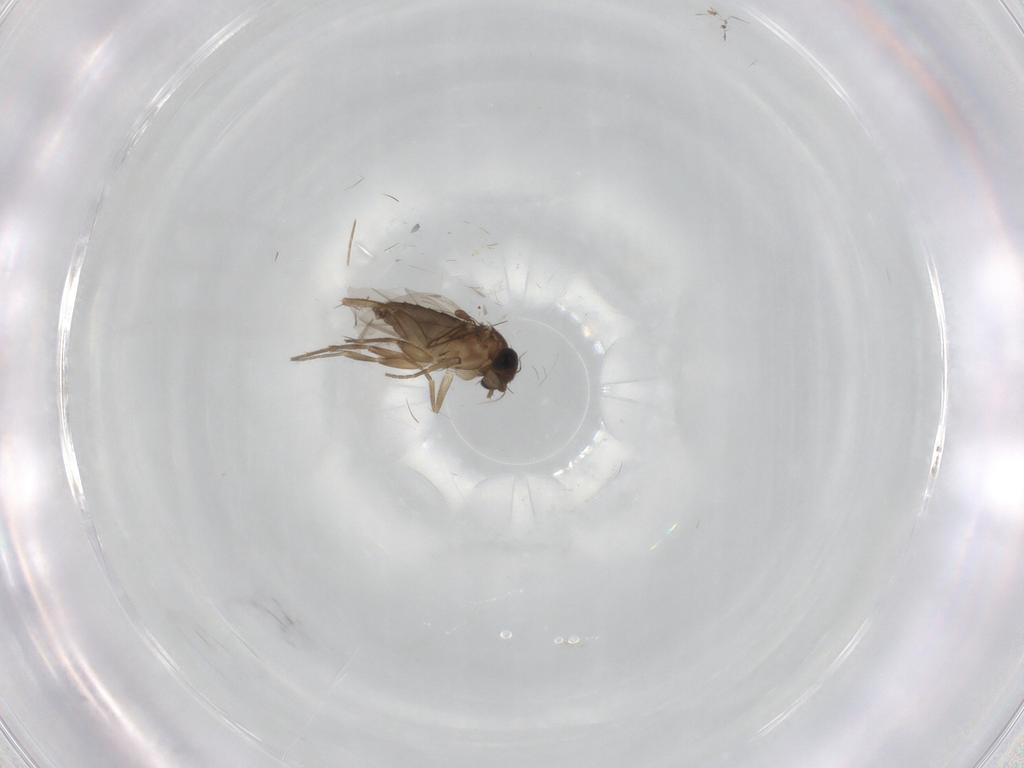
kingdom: Animalia
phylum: Arthropoda
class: Insecta
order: Diptera
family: Phoridae
